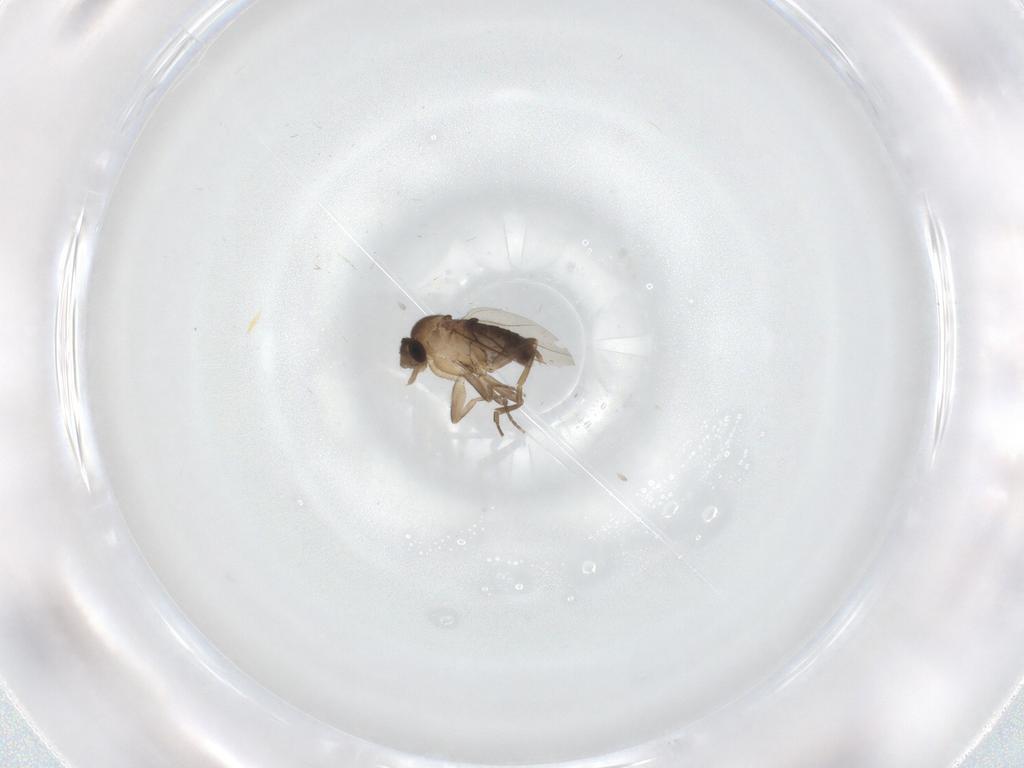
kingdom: Animalia
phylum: Arthropoda
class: Insecta
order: Diptera
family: Phoridae
